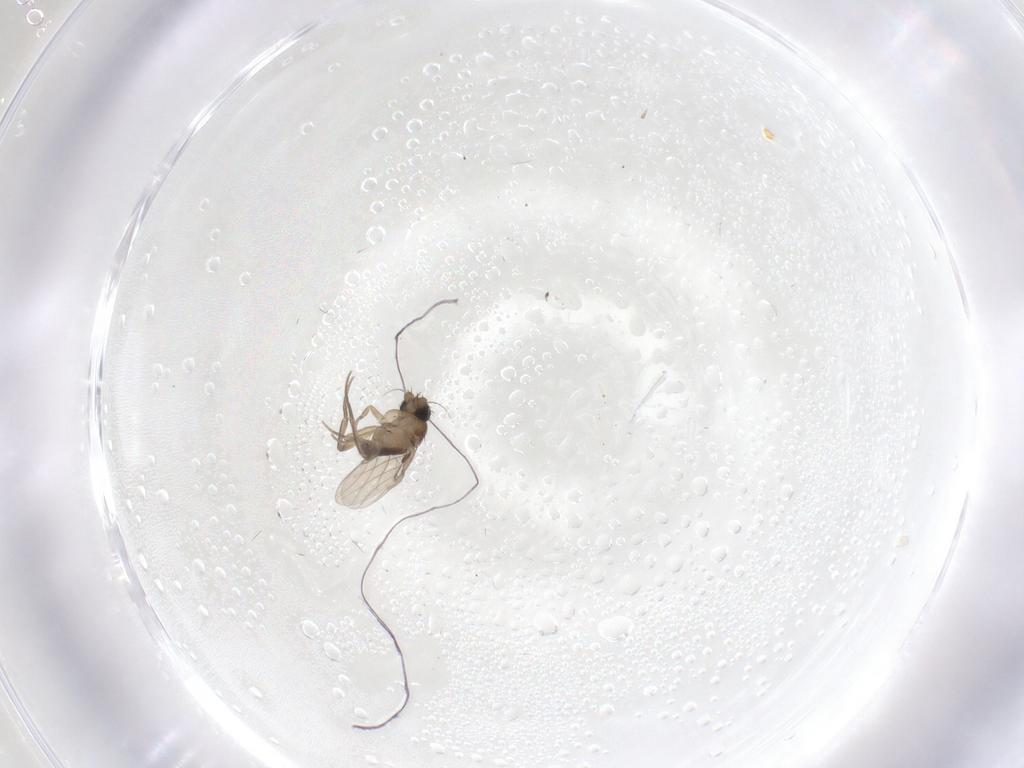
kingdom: Animalia
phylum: Arthropoda
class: Insecta
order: Diptera
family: Phoridae
